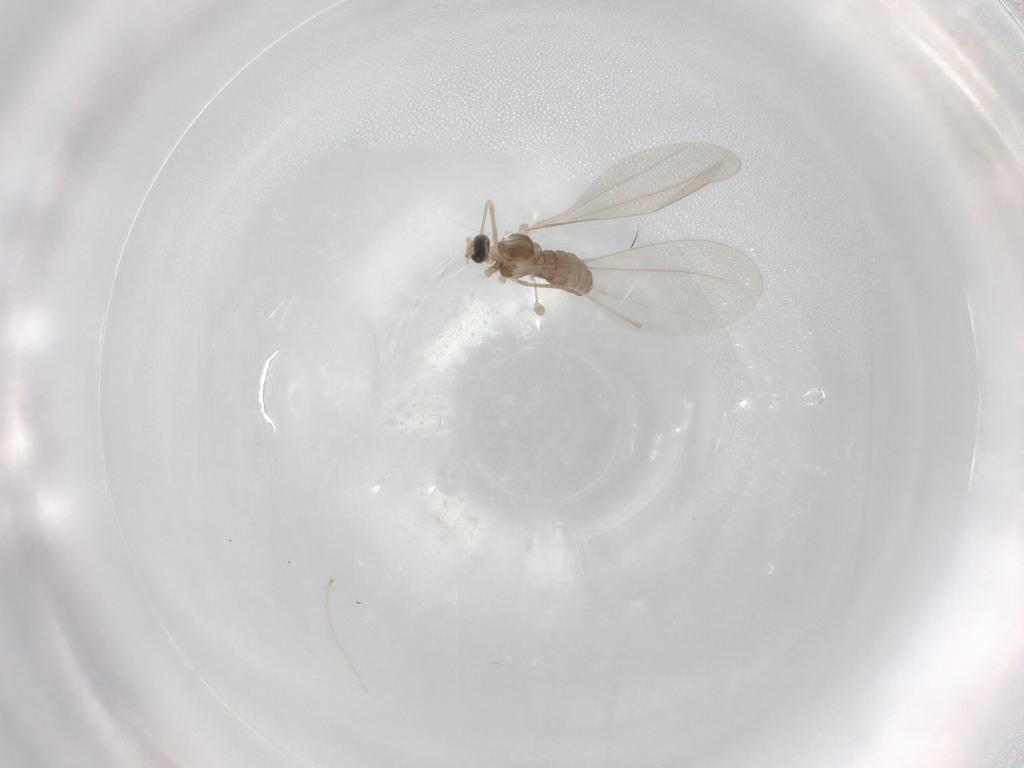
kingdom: Animalia
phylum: Arthropoda
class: Insecta
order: Diptera
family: Cecidomyiidae
